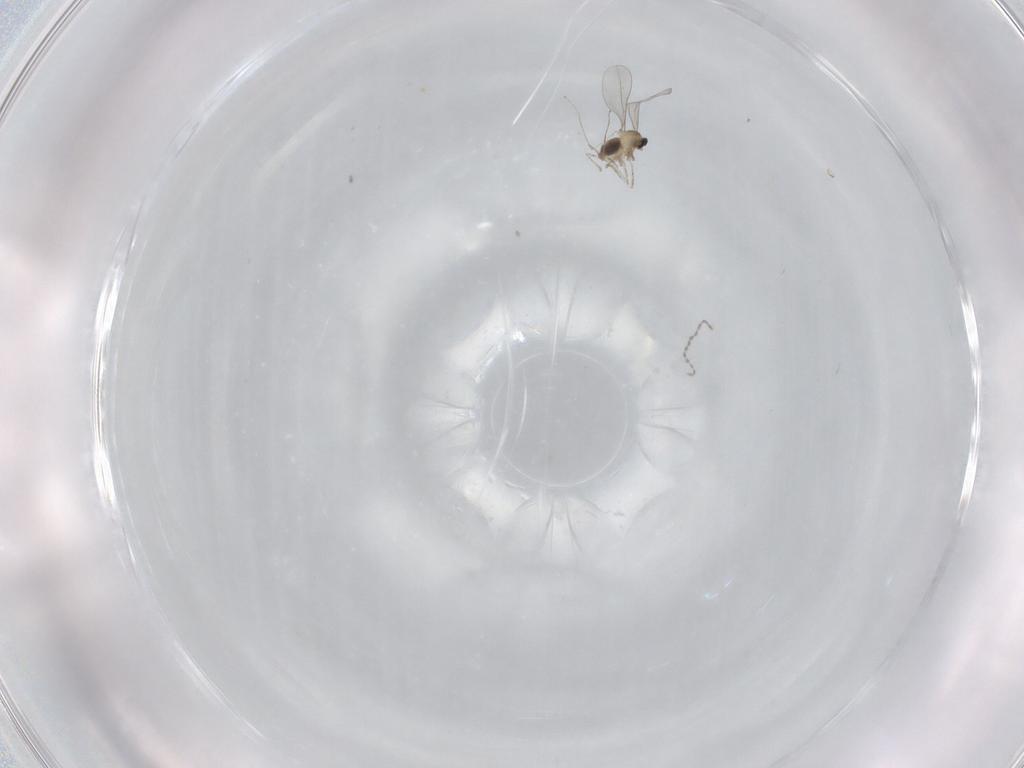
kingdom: Animalia
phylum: Arthropoda
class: Insecta
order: Diptera
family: Cecidomyiidae
